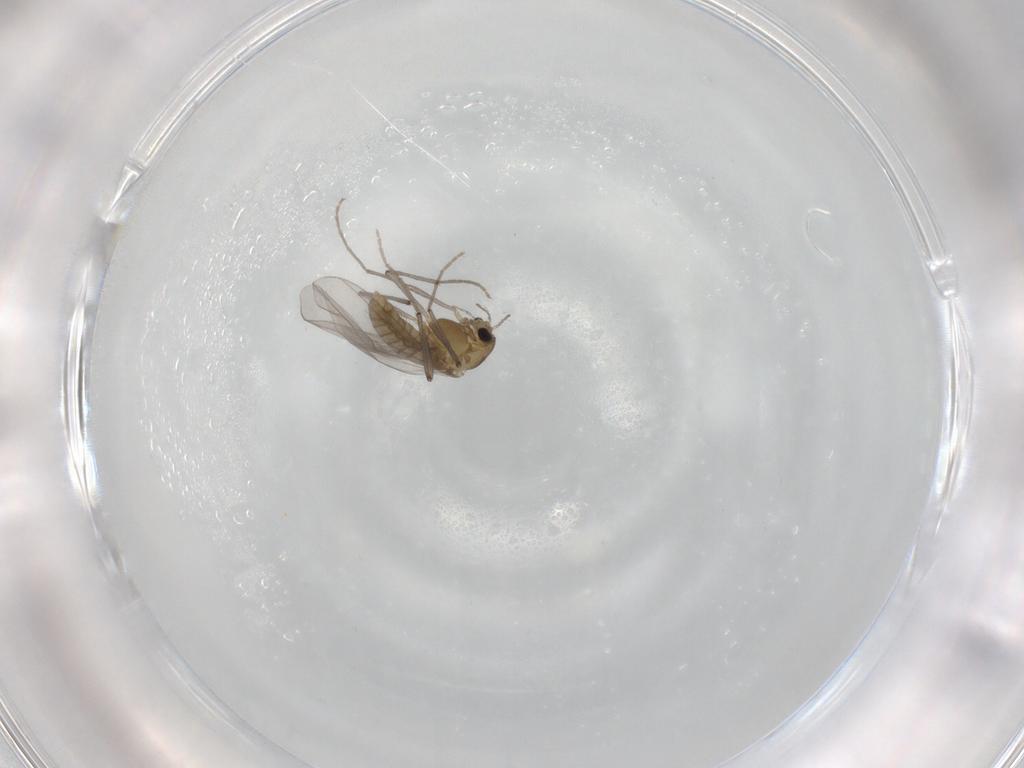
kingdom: Animalia
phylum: Arthropoda
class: Insecta
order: Diptera
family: Chironomidae
